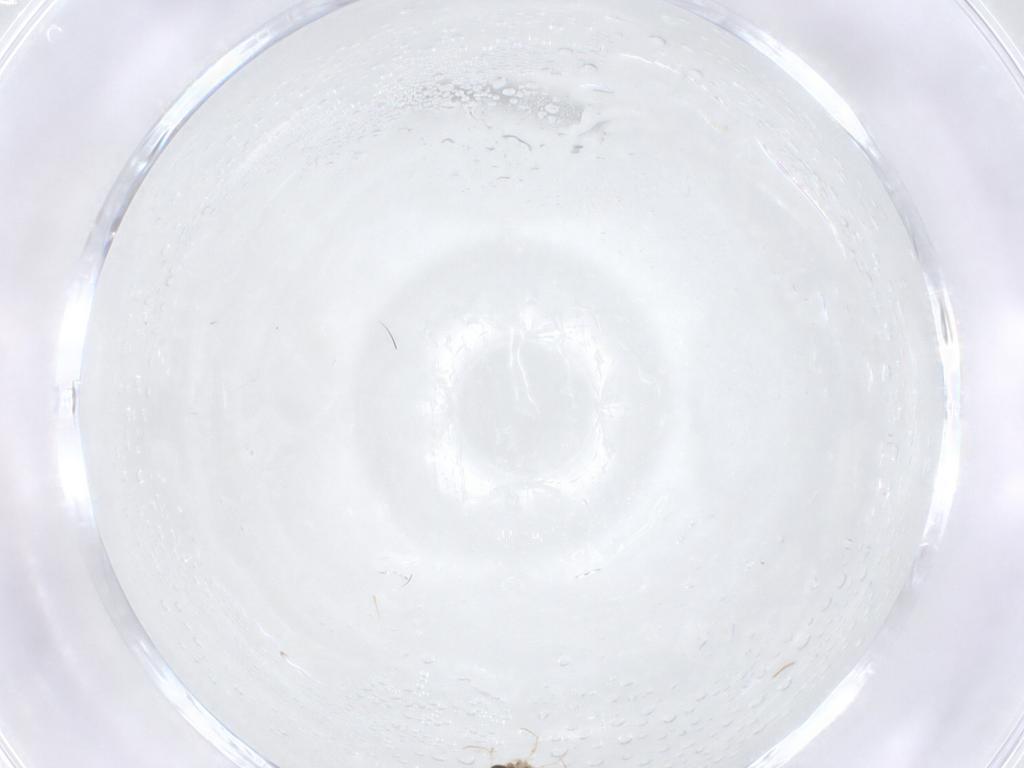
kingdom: Animalia
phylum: Arthropoda
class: Insecta
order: Diptera
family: Chironomidae
